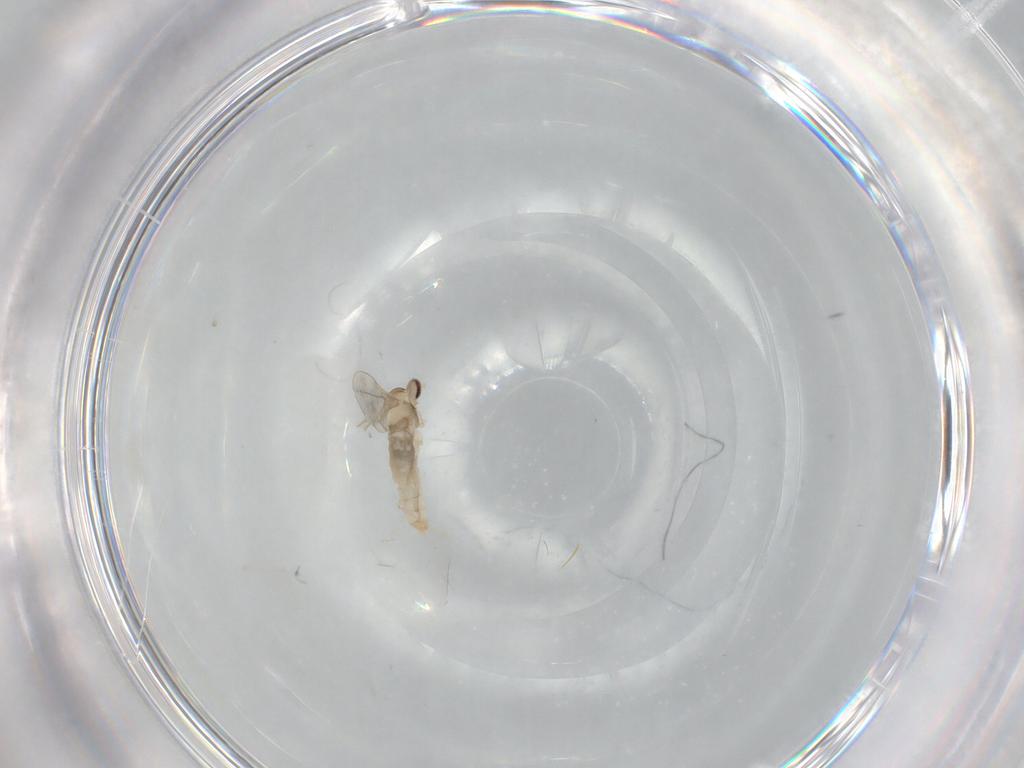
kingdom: Animalia
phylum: Arthropoda
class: Insecta
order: Diptera
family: Cecidomyiidae
